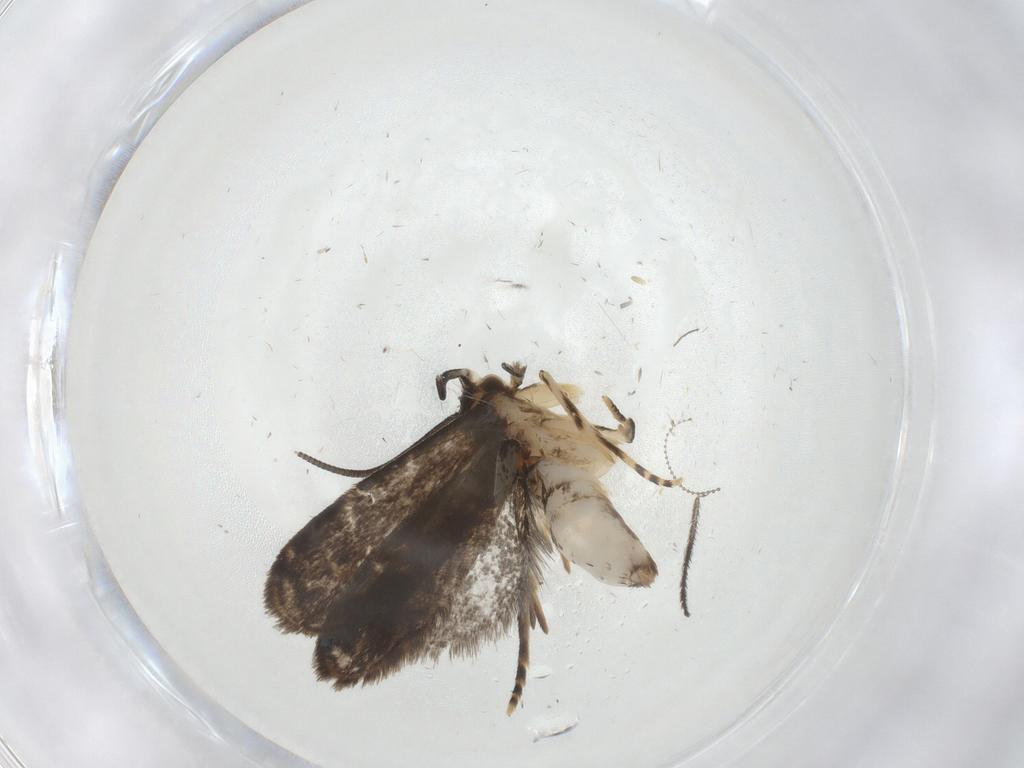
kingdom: Animalia
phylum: Arthropoda
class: Insecta
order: Lepidoptera
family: Dryadaulidae
